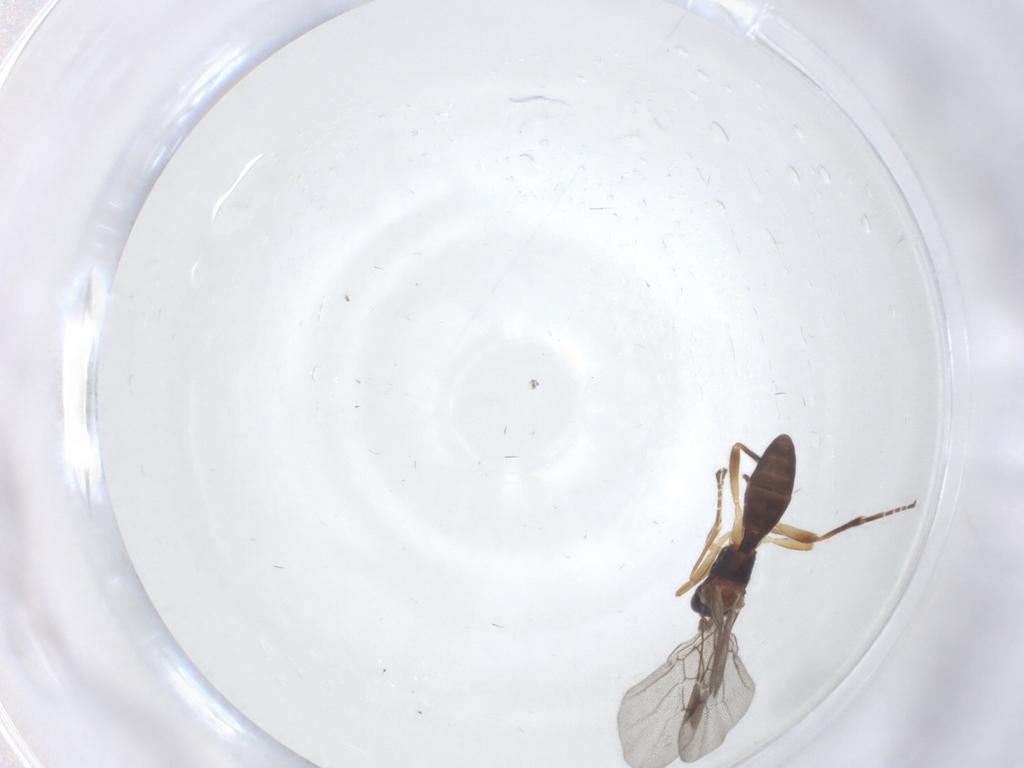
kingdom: Animalia
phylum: Arthropoda
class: Insecta
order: Hymenoptera
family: Braconidae
